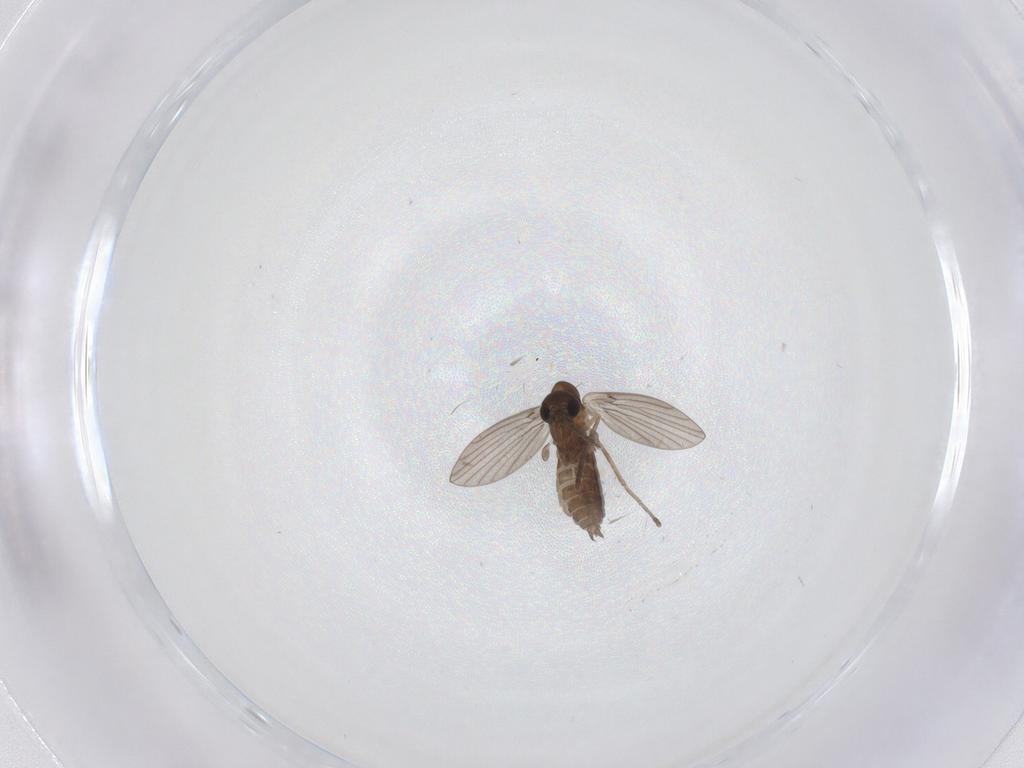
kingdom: Animalia
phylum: Arthropoda
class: Insecta
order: Diptera
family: Psychodidae
